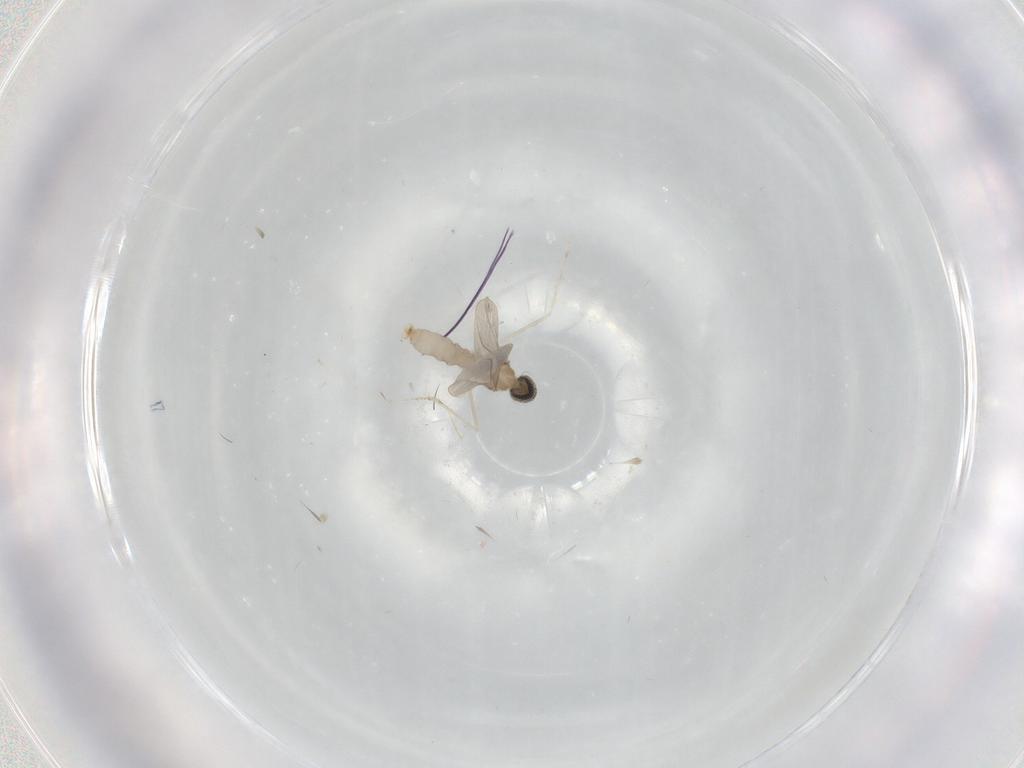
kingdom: Animalia
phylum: Arthropoda
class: Insecta
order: Diptera
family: Cecidomyiidae
